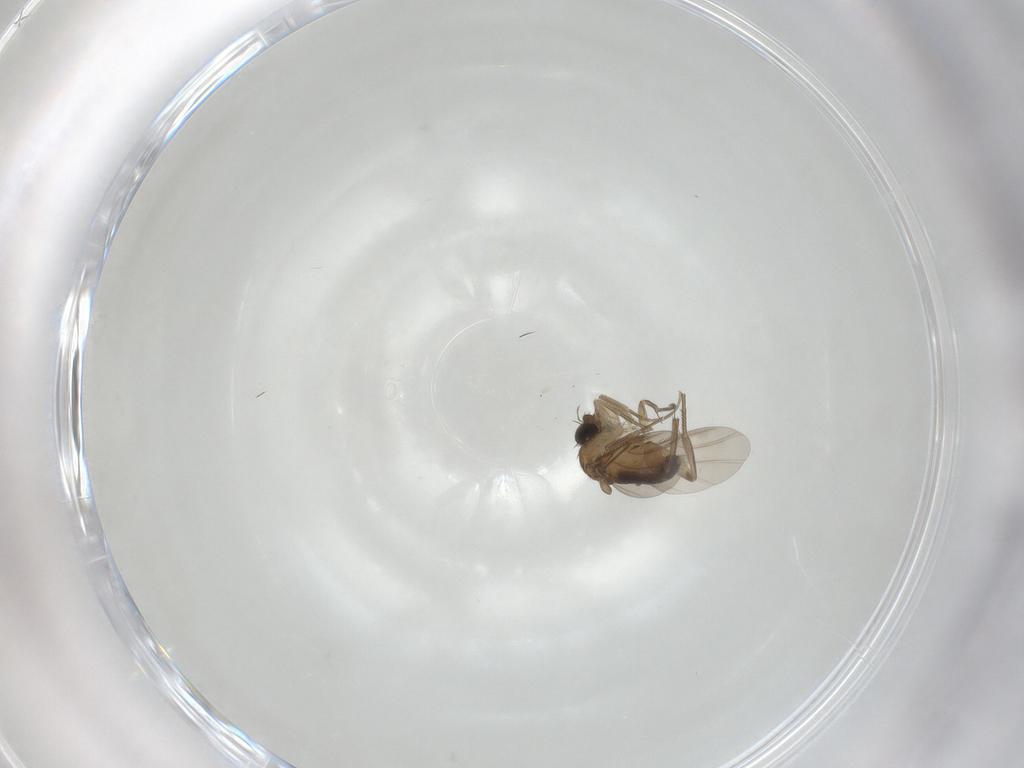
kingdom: Animalia
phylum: Arthropoda
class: Insecta
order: Diptera
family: Phoridae
